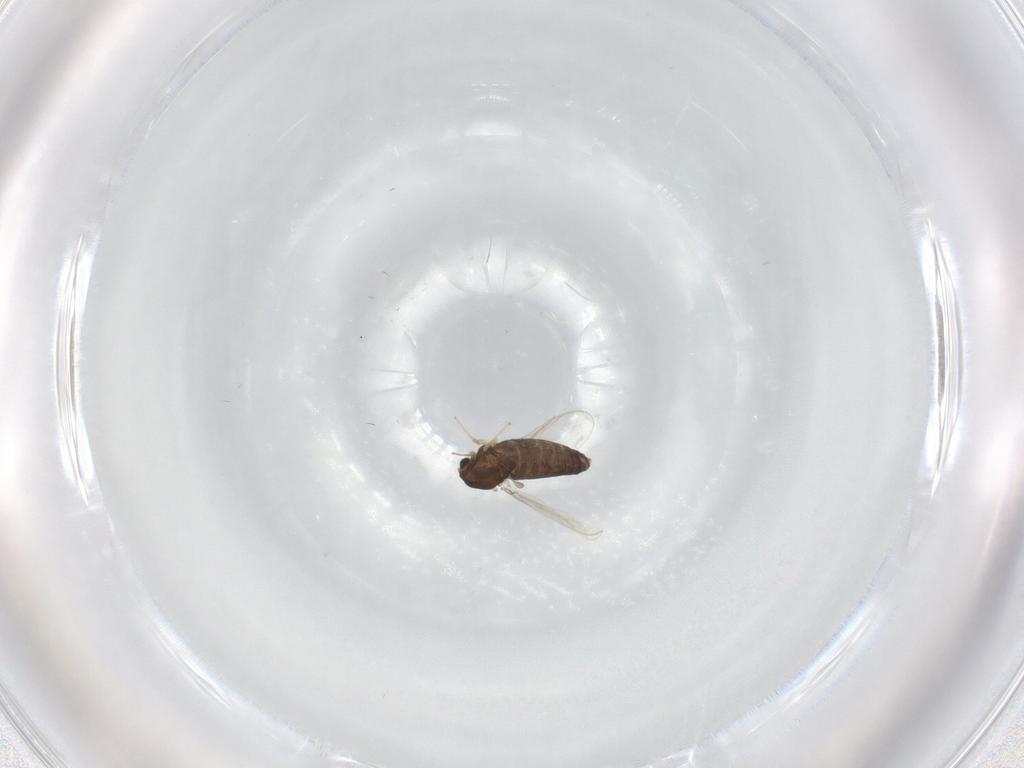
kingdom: Animalia
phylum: Arthropoda
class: Insecta
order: Diptera
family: Chironomidae
